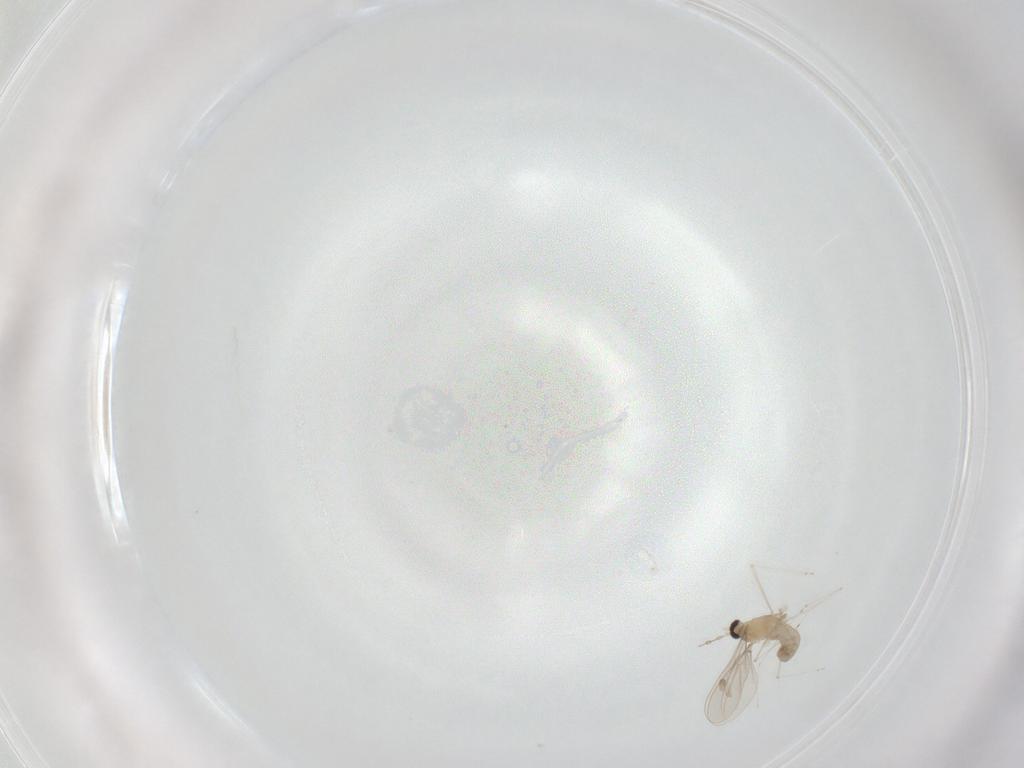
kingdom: Animalia
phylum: Arthropoda
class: Insecta
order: Diptera
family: Cecidomyiidae
